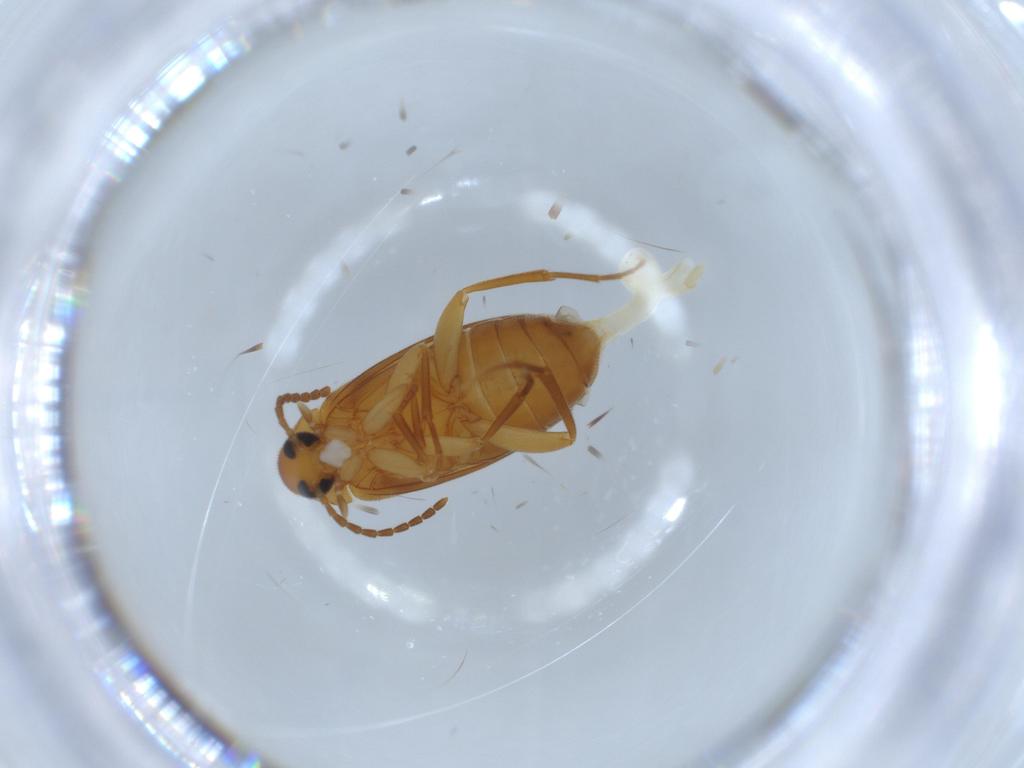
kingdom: Animalia
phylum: Arthropoda
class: Insecta
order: Coleoptera
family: Scraptiidae
